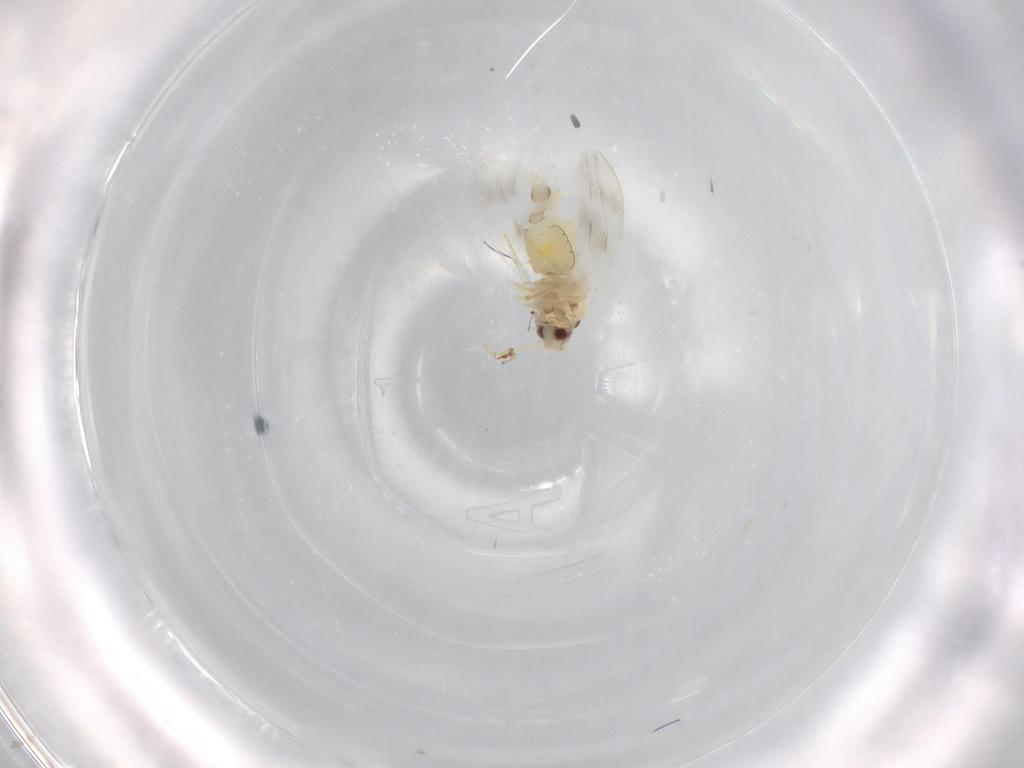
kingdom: Animalia
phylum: Arthropoda
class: Insecta
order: Hemiptera
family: Aleyrodidae
